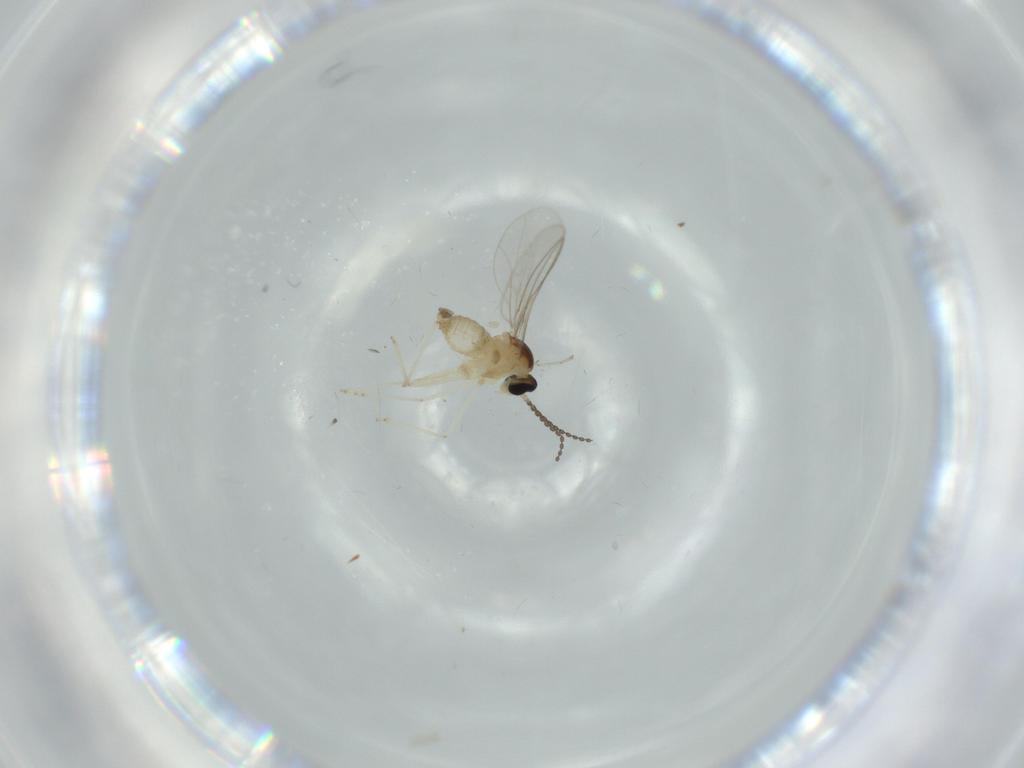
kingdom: Animalia
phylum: Arthropoda
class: Insecta
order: Diptera
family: Cecidomyiidae
